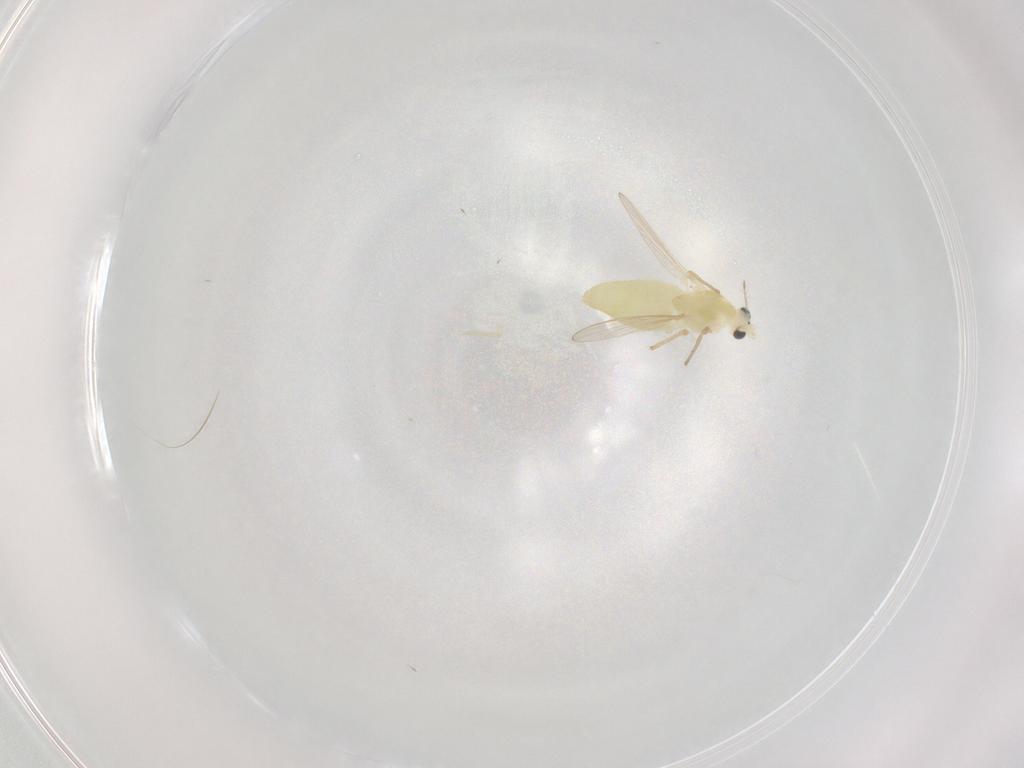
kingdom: Animalia
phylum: Arthropoda
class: Insecta
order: Diptera
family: Chironomidae
